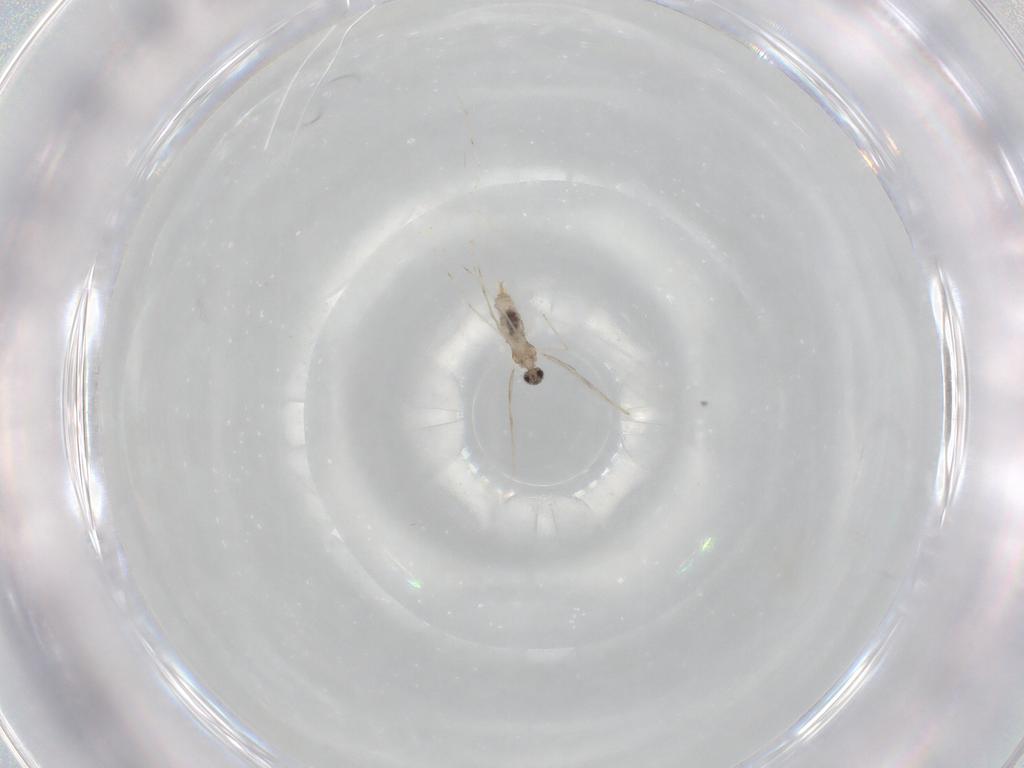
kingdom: Animalia
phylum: Arthropoda
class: Insecta
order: Diptera
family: Cecidomyiidae
